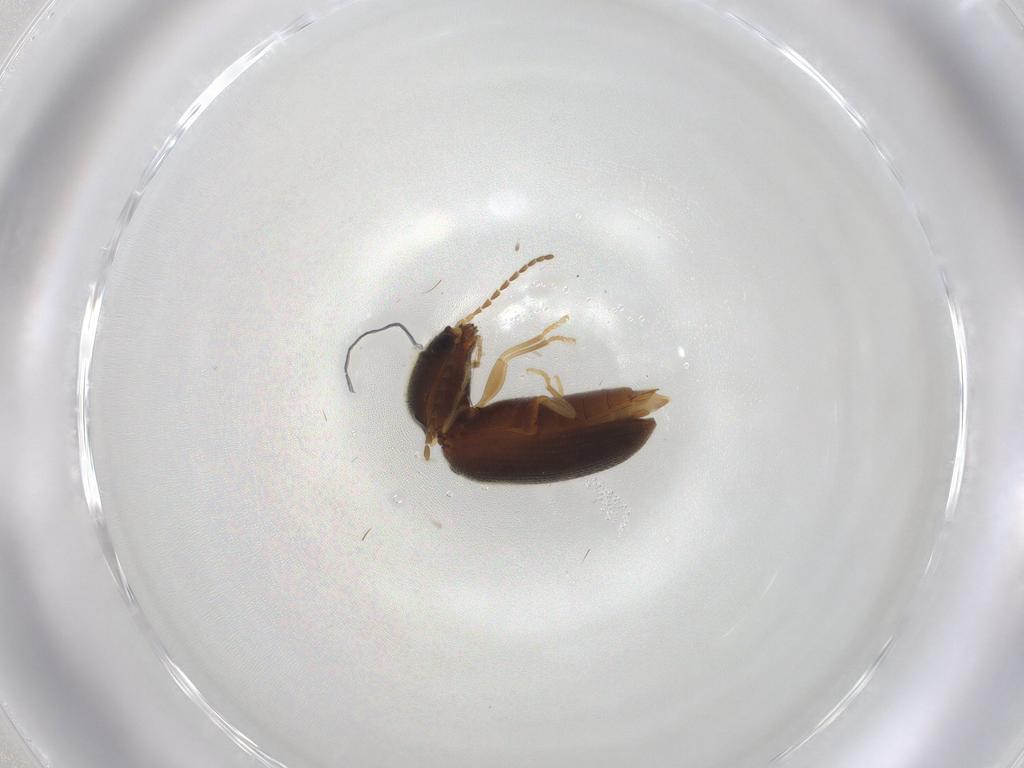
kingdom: Animalia
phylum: Arthropoda
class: Insecta
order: Coleoptera
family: Elateridae
